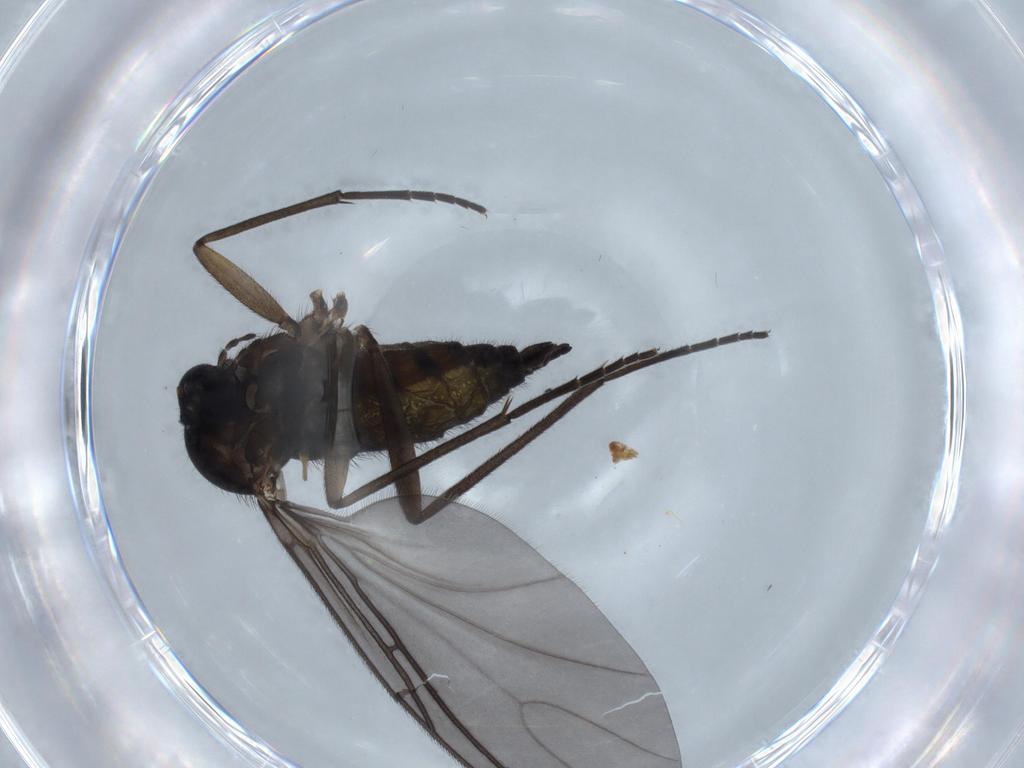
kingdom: Animalia
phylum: Arthropoda
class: Insecta
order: Diptera
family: Sciaridae
